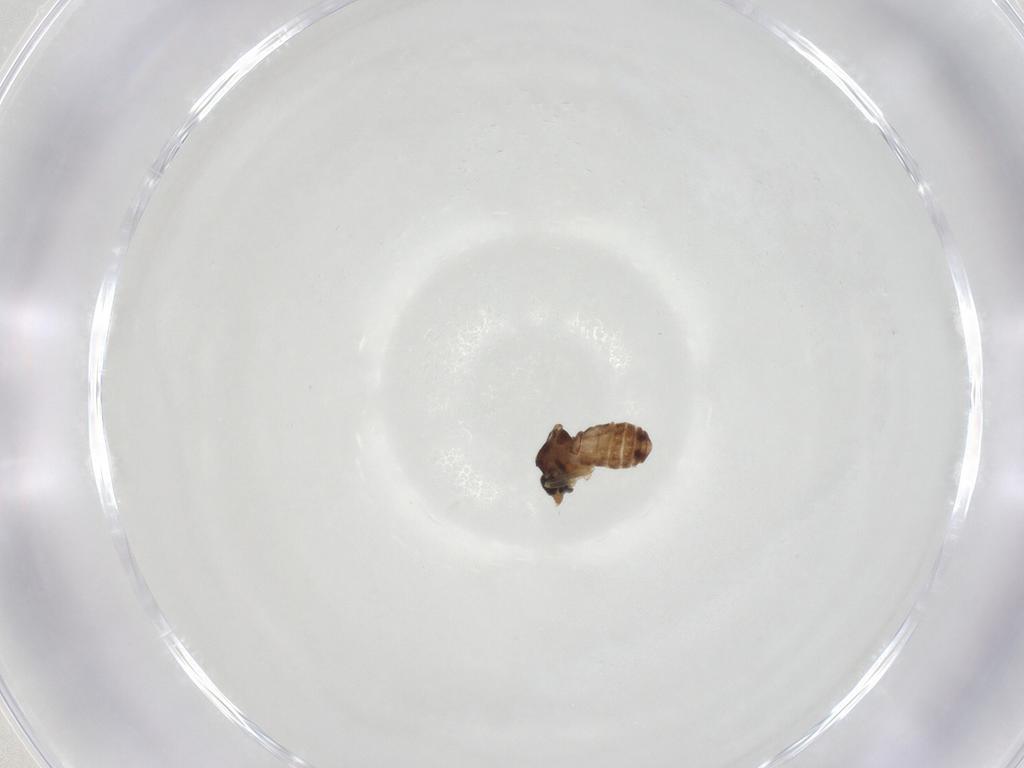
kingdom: Animalia
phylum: Arthropoda
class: Insecta
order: Diptera
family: Ceratopogonidae
